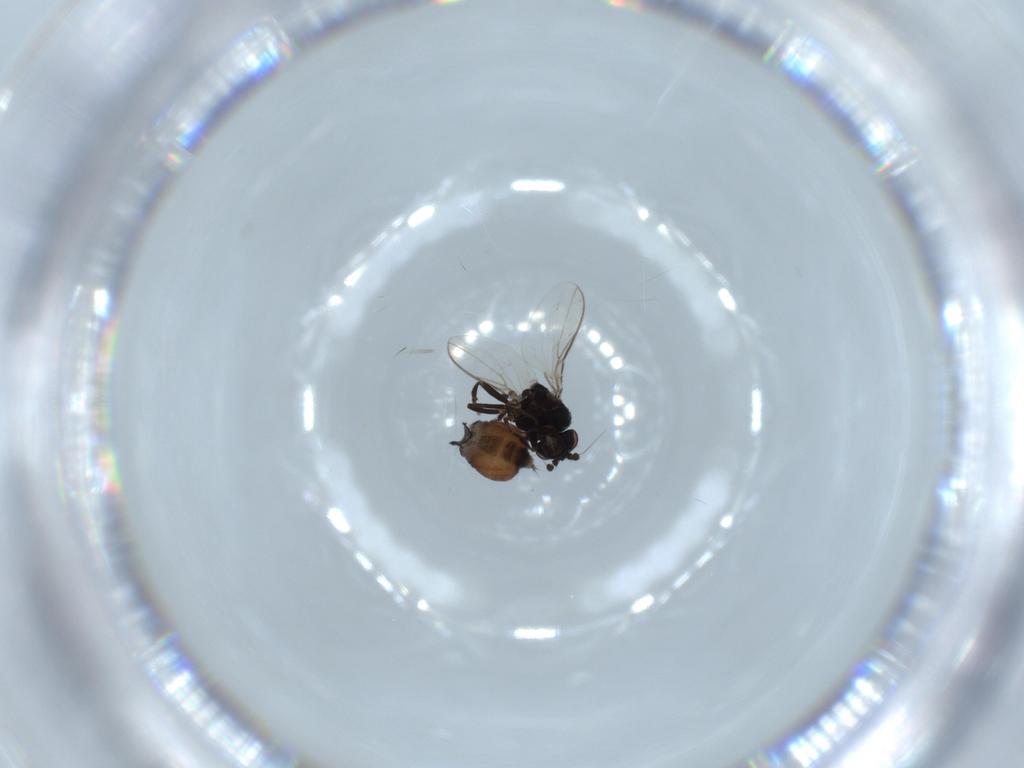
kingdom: Animalia
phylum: Arthropoda
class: Insecta
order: Diptera
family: Sphaeroceridae
